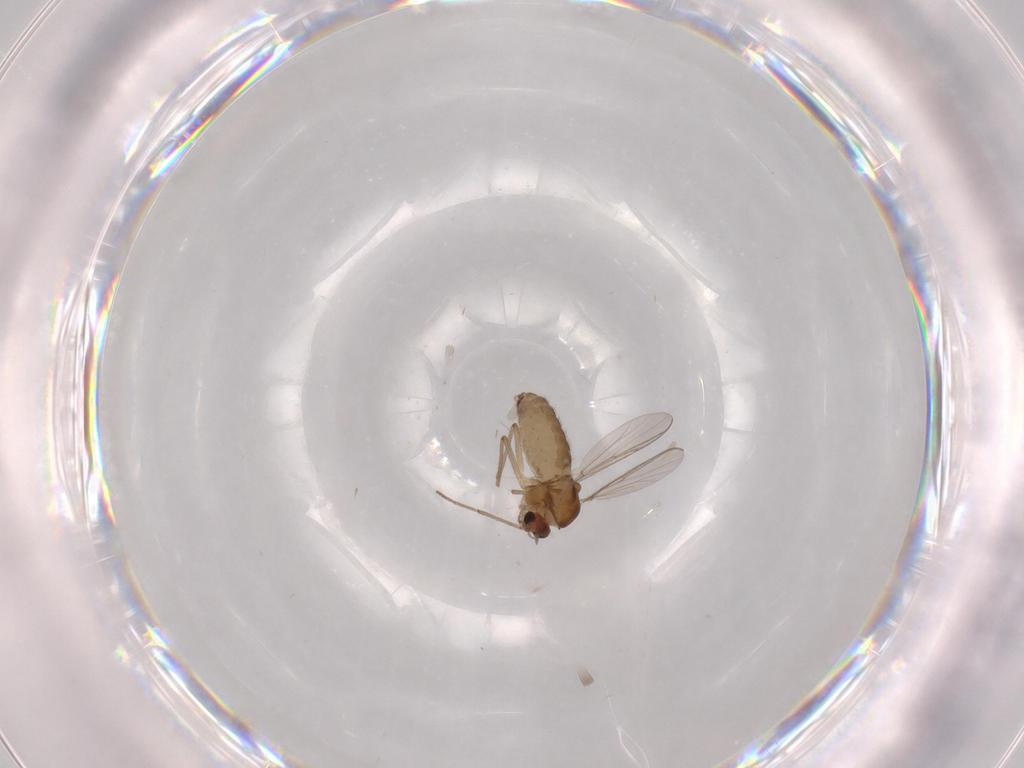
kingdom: Animalia
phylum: Arthropoda
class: Insecta
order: Diptera
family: Chironomidae
